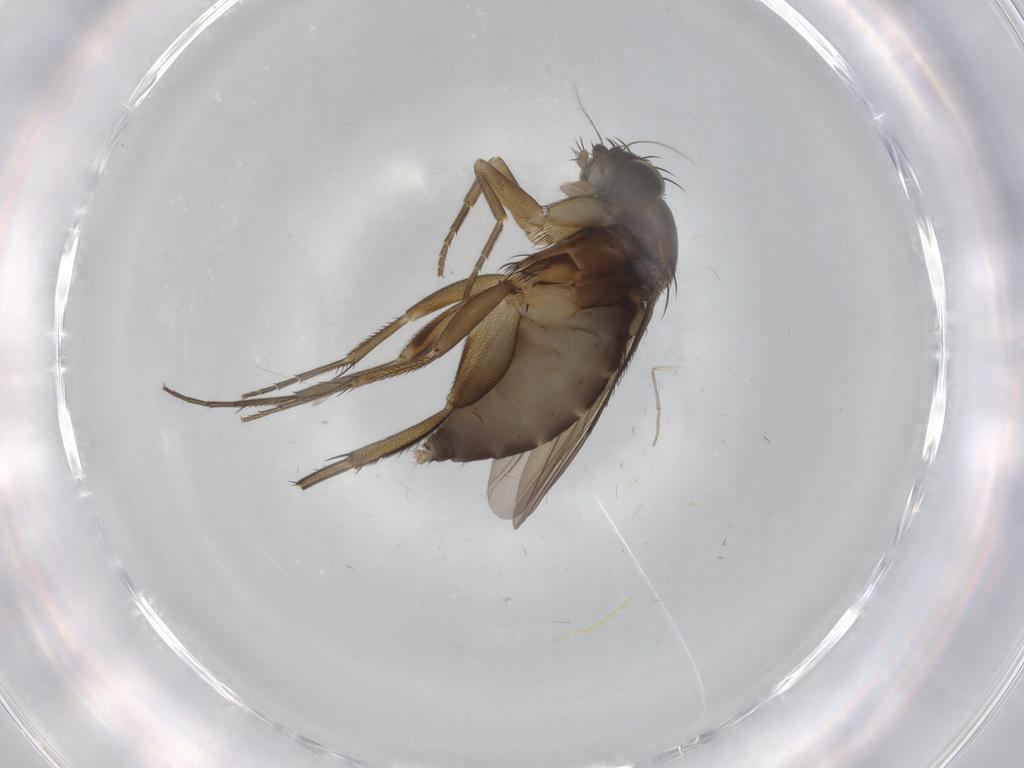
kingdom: Animalia
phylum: Arthropoda
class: Insecta
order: Diptera
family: Phoridae
